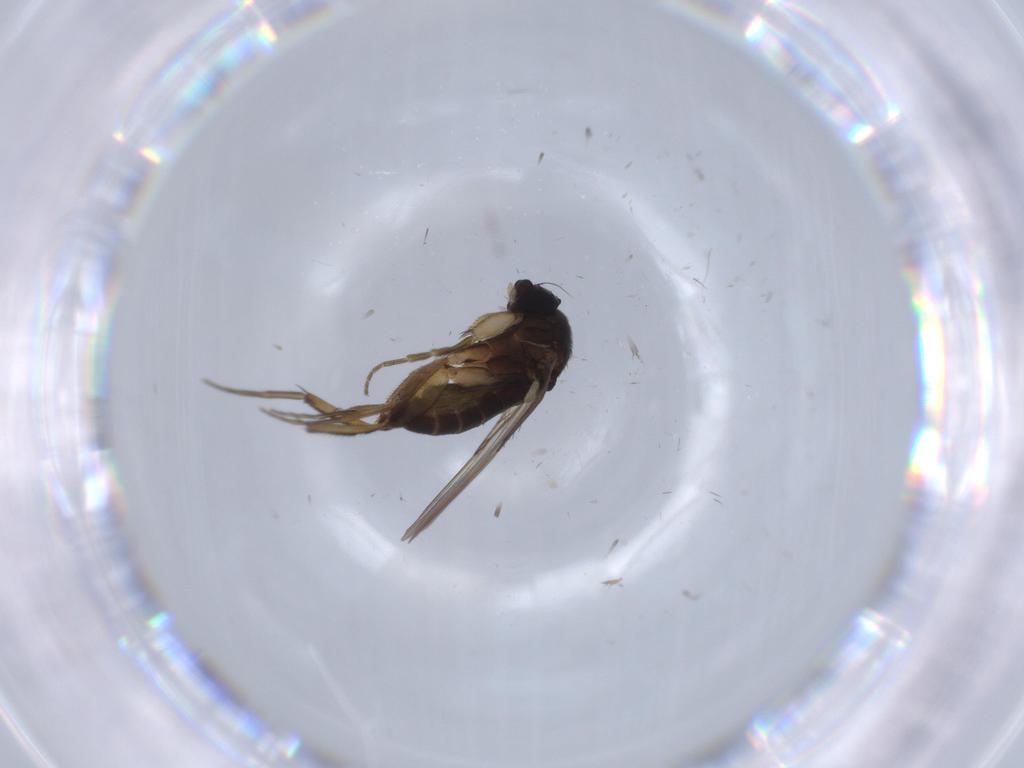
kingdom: Animalia
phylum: Arthropoda
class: Insecta
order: Diptera
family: Phoridae
